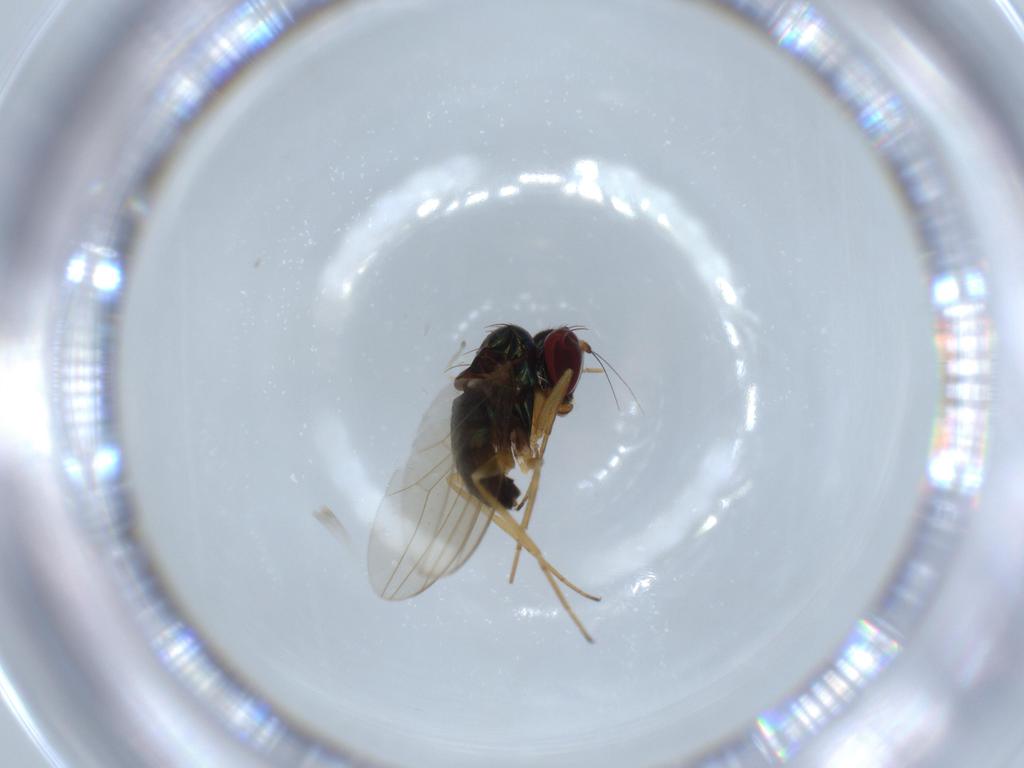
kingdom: Animalia
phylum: Arthropoda
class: Insecta
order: Diptera
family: Dolichopodidae
